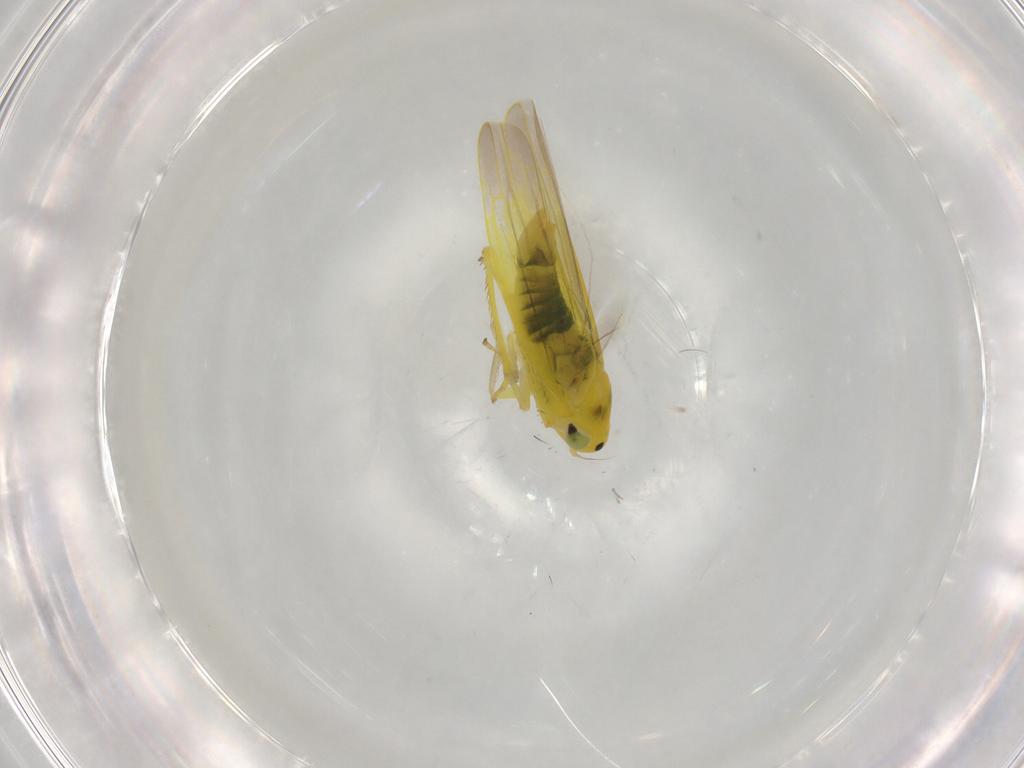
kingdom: Animalia
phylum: Arthropoda
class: Insecta
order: Hemiptera
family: Cicadellidae
